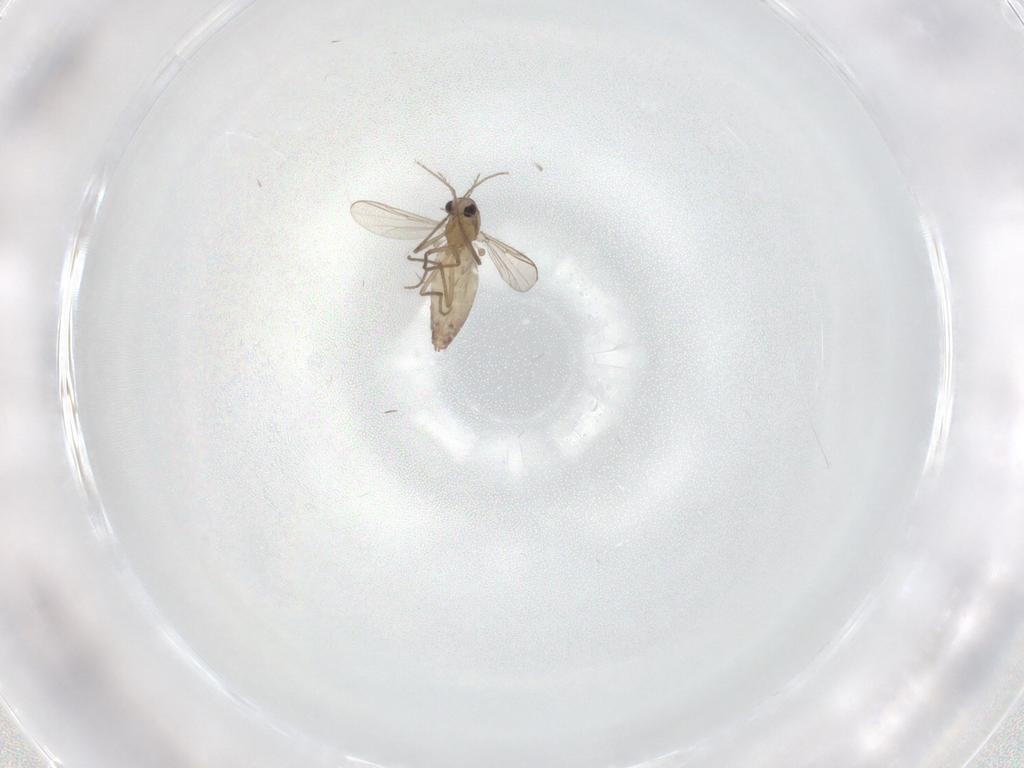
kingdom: Animalia
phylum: Arthropoda
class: Insecta
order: Diptera
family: Chironomidae
